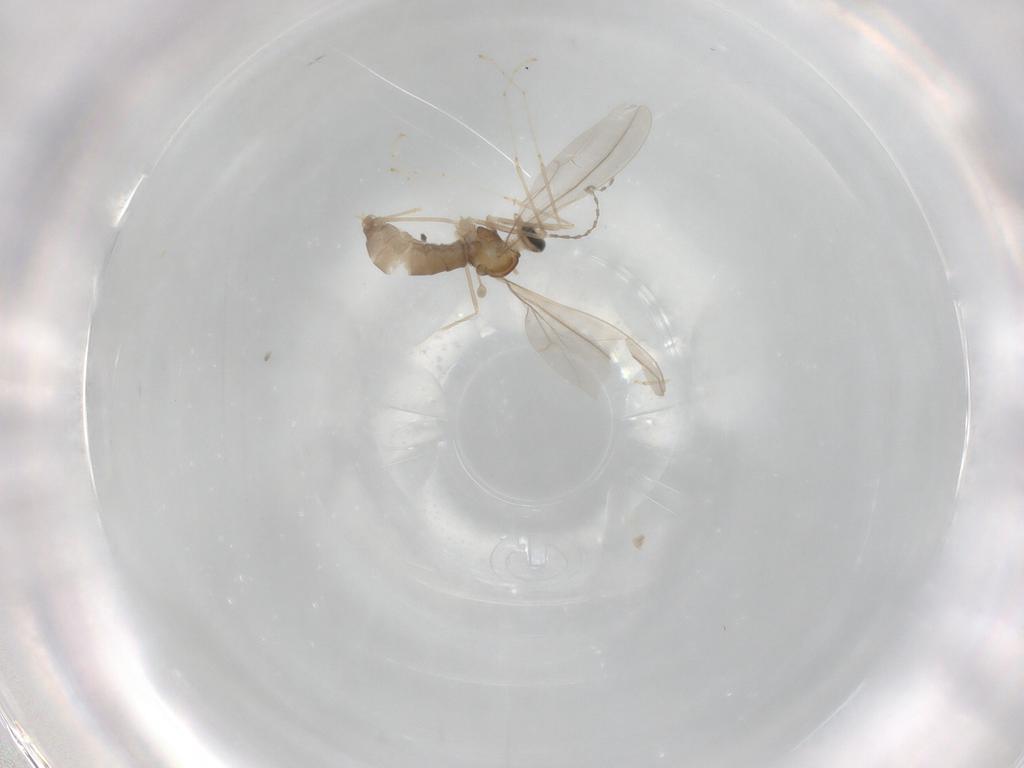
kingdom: Animalia
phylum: Arthropoda
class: Insecta
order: Diptera
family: Cecidomyiidae
